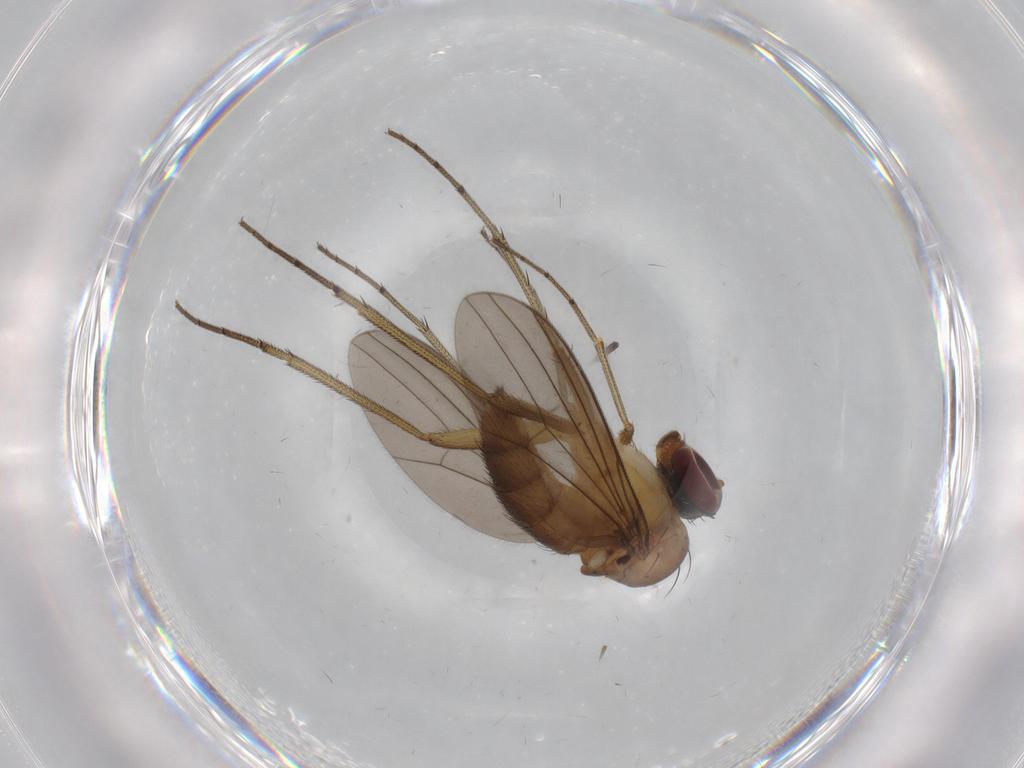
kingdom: Animalia
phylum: Arthropoda
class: Insecta
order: Diptera
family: Dolichopodidae
